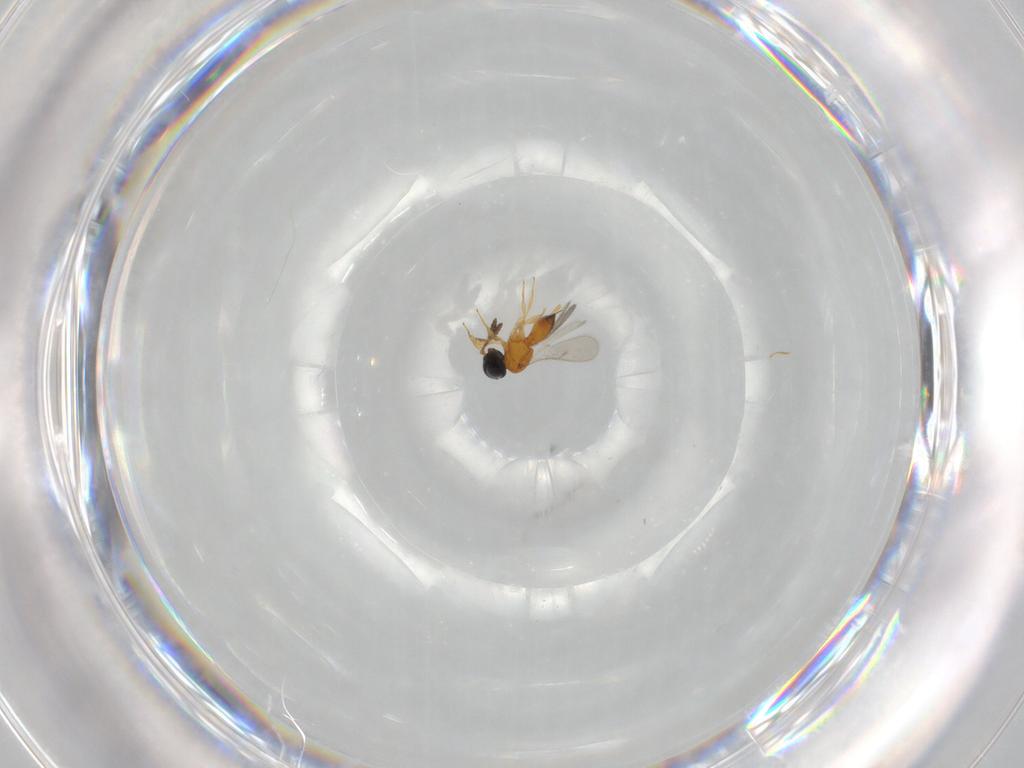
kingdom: Animalia
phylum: Arthropoda
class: Insecta
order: Hymenoptera
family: Scelionidae
